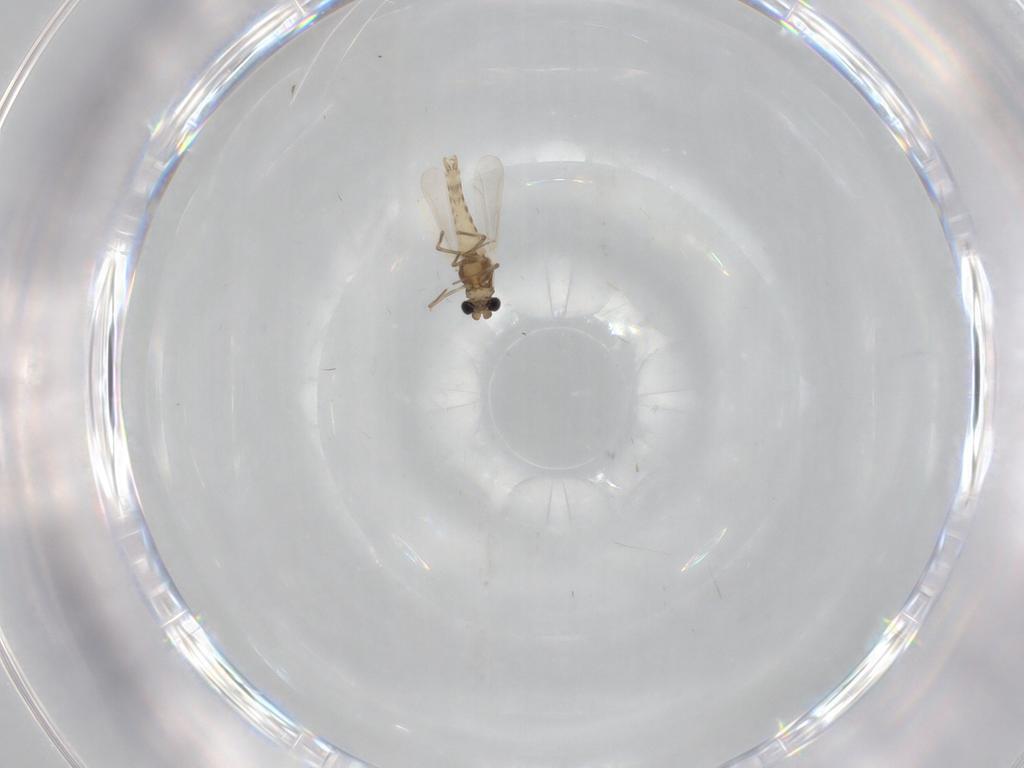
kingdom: Animalia
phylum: Arthropoda
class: Insecta
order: Diptera
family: Chironomidae
